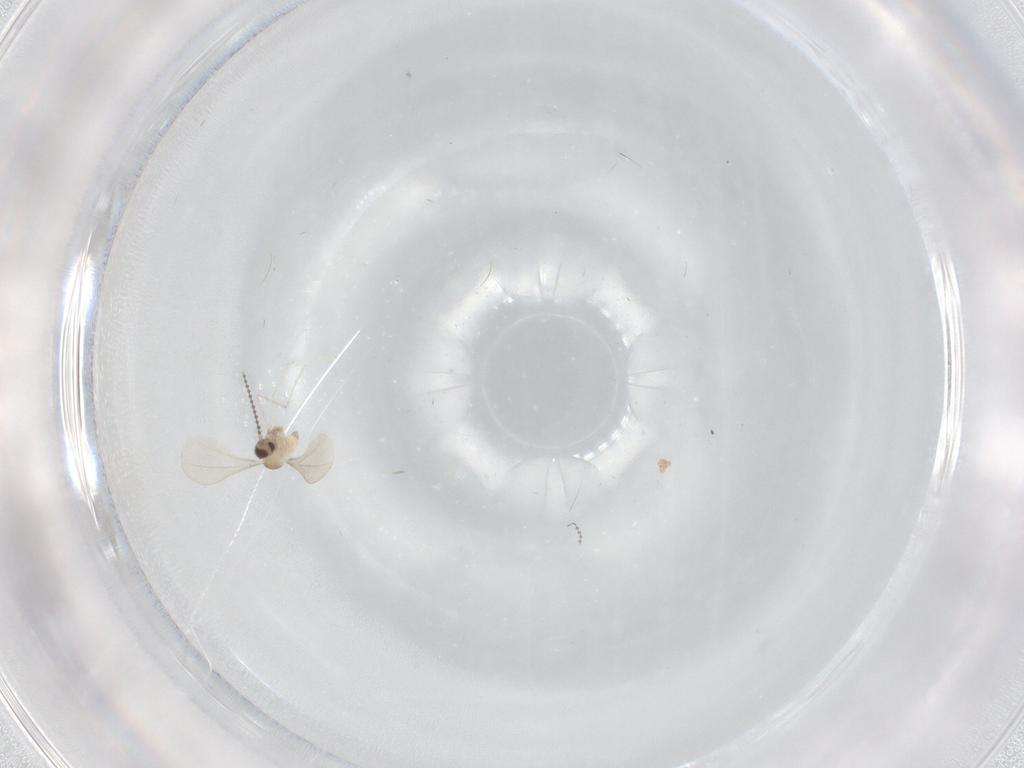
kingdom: Animalia
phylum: Arthropoda
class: Insecta
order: Diptera
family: Cecidomyiidae
